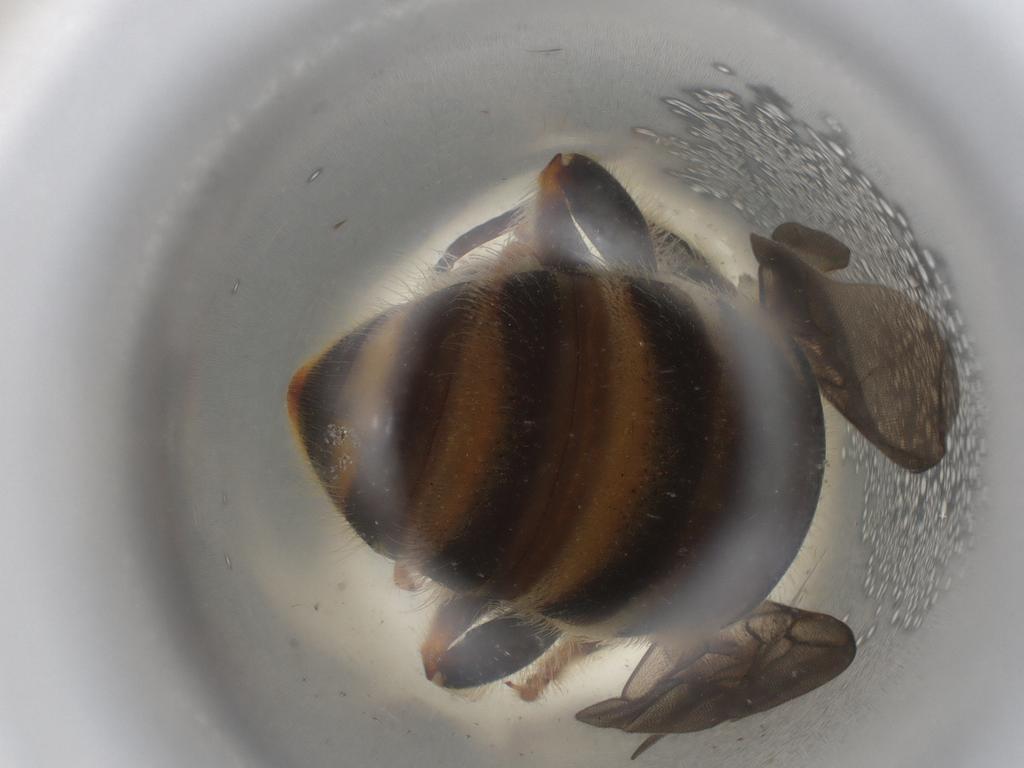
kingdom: Animalia
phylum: Arthropoda
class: Insecta
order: Hymenoptera
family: Halictidae
